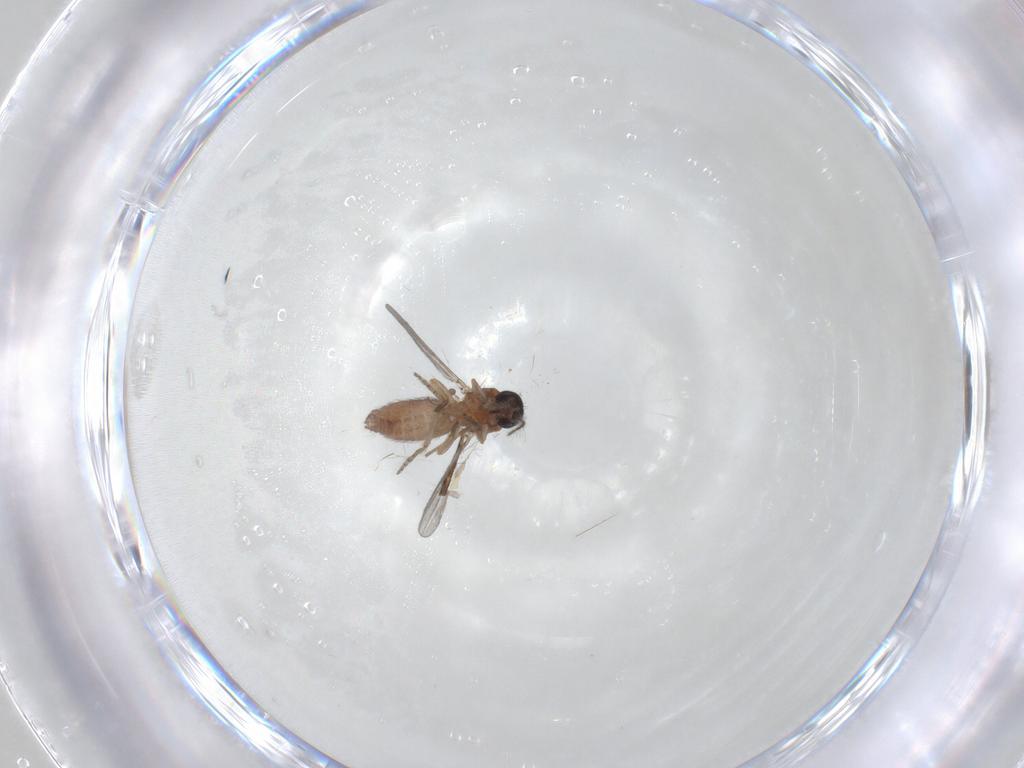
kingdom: Animalia
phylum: Arthropoda
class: Insecta
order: Diptera
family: Ceratopogonidae
